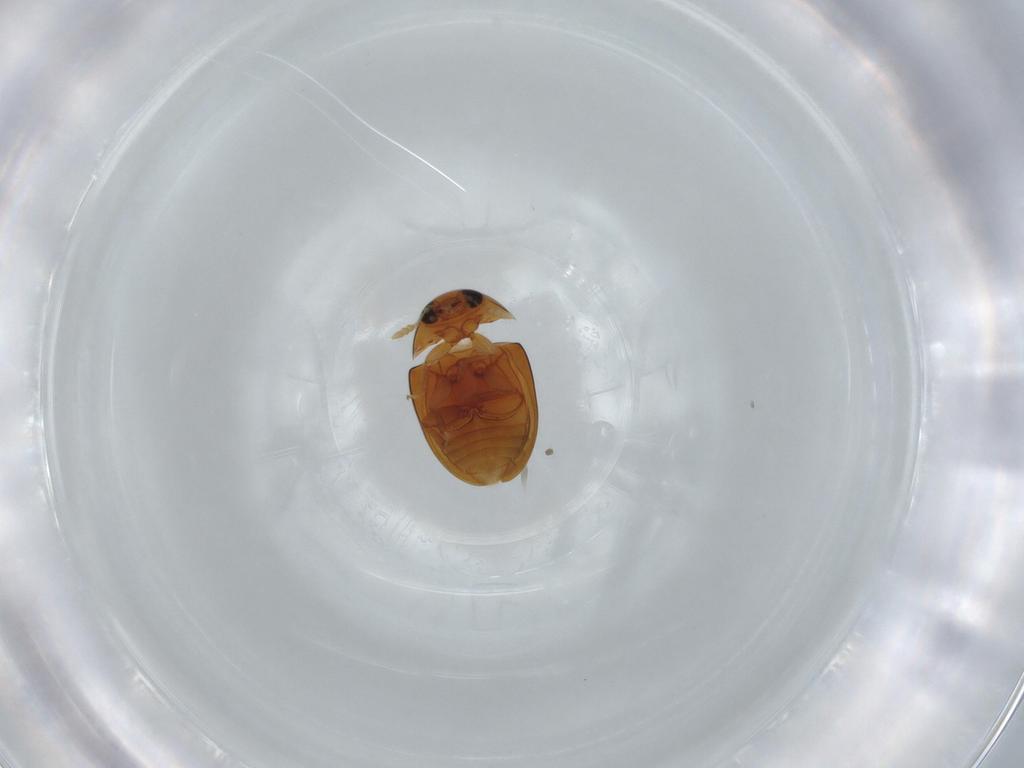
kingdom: Animalia
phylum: Arthropoda
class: Insecta
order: Coleoptera
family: Phalacridae
